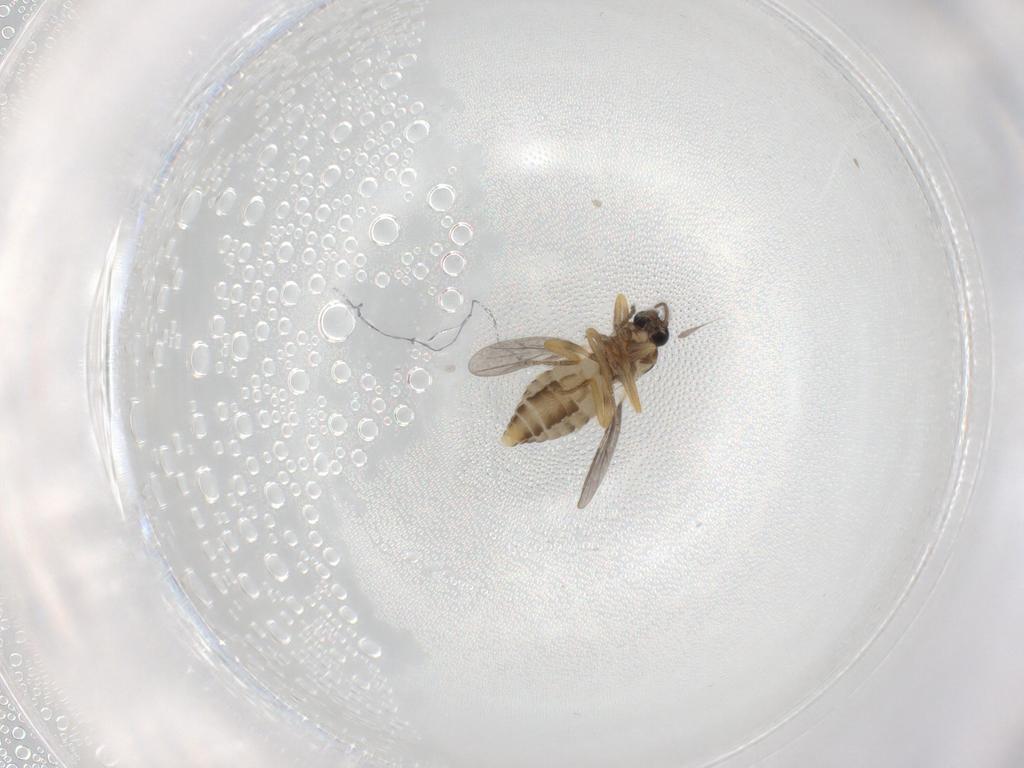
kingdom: Animalia
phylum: Arthropoda
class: Insecta
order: Diptera
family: Ceratopogonidae
